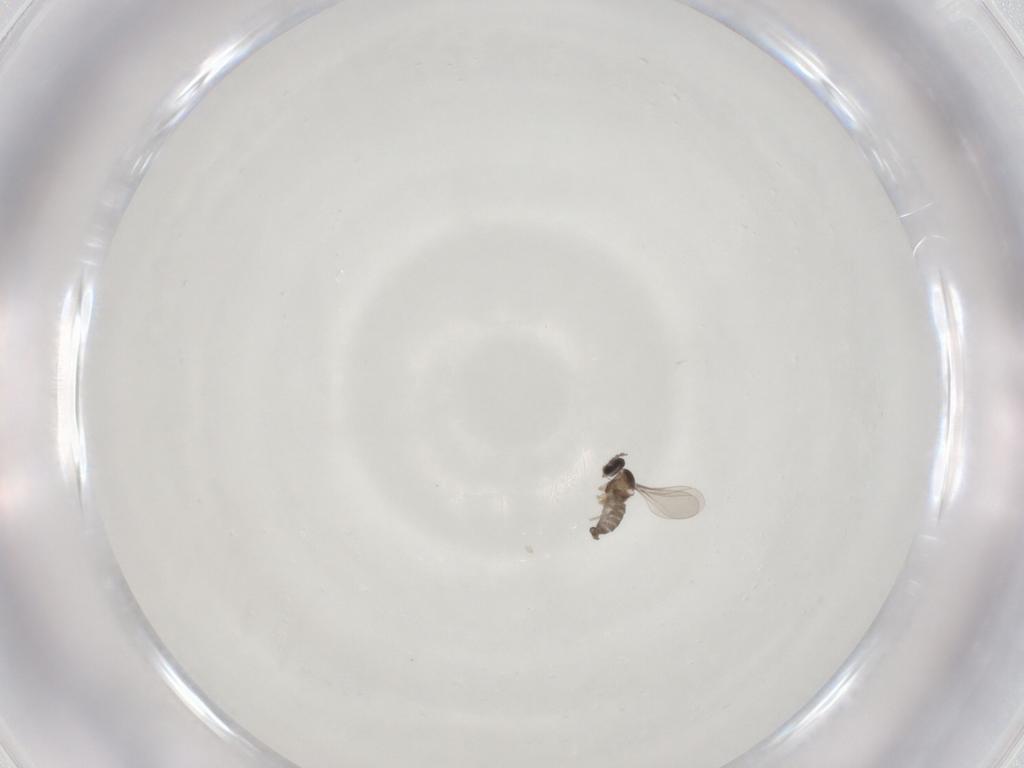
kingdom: Animalia
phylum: Arthropoda
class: Insecta
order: Diptera
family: Cecidomyiidae
